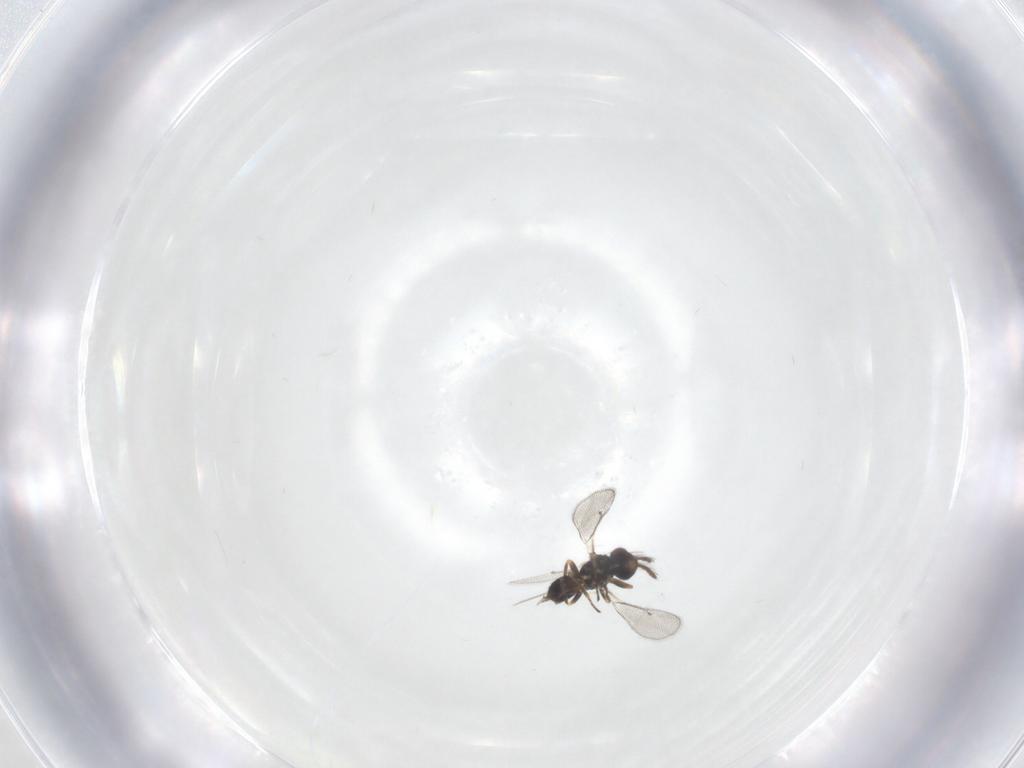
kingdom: Animalia
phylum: Arthropoda
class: Insecta
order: Hymenoptera
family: Eulophidae
